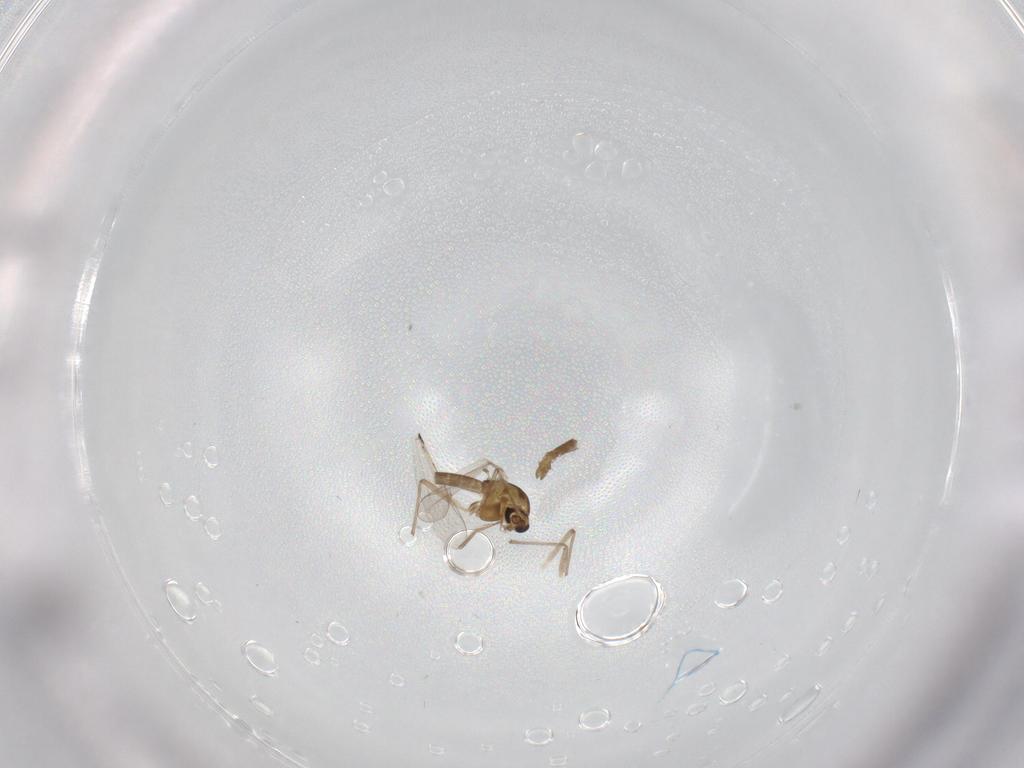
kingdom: Animalia
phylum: Arthropoda
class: Insecta
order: Diptera
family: Chironomidae
